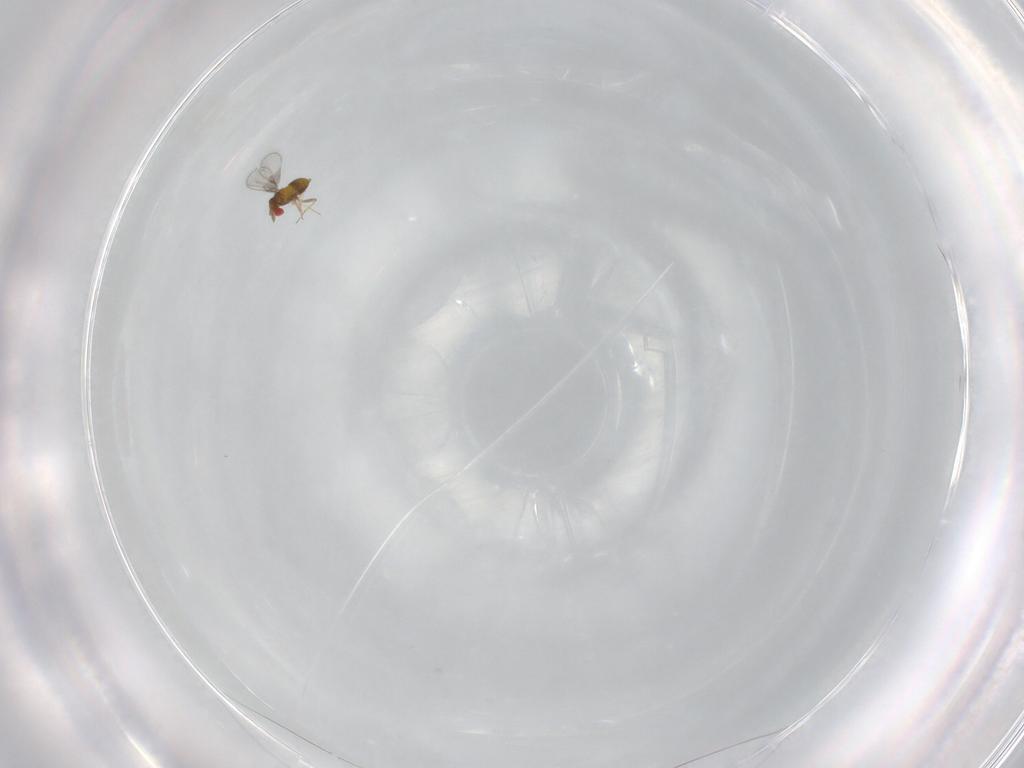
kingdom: Animalia
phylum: Arthropoda
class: Insecta
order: Hymenoptera
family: Trichogrammatidae
